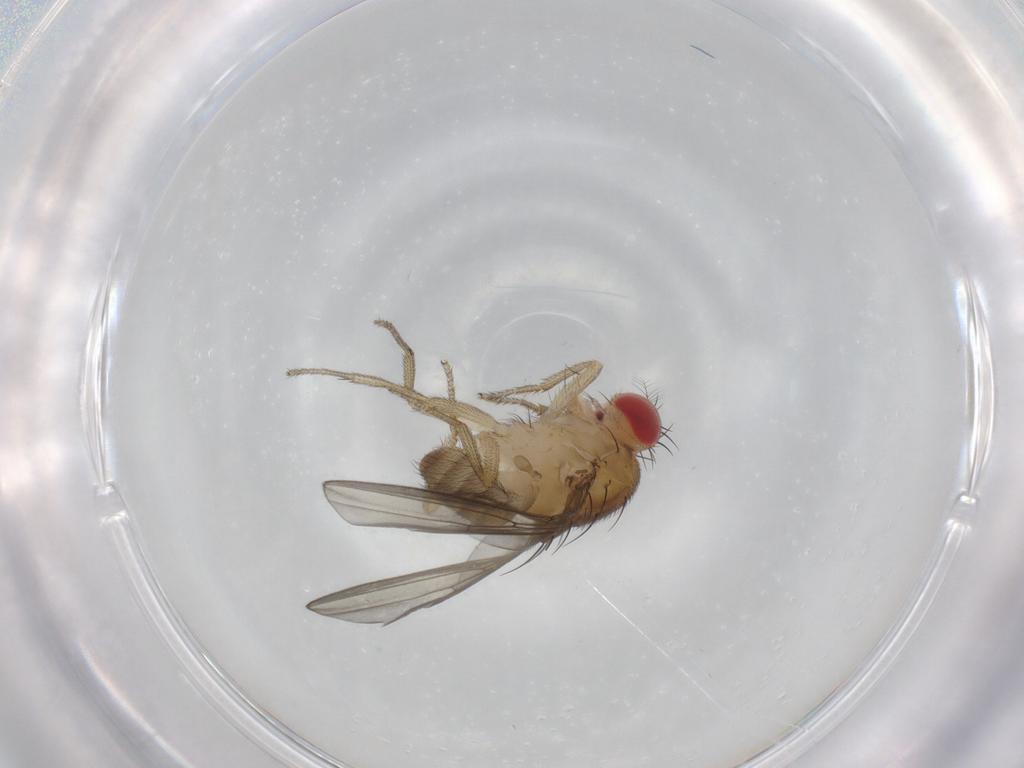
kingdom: Animalia
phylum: Arthropoda
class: Insecta
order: Diptera
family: Drosophilidae
